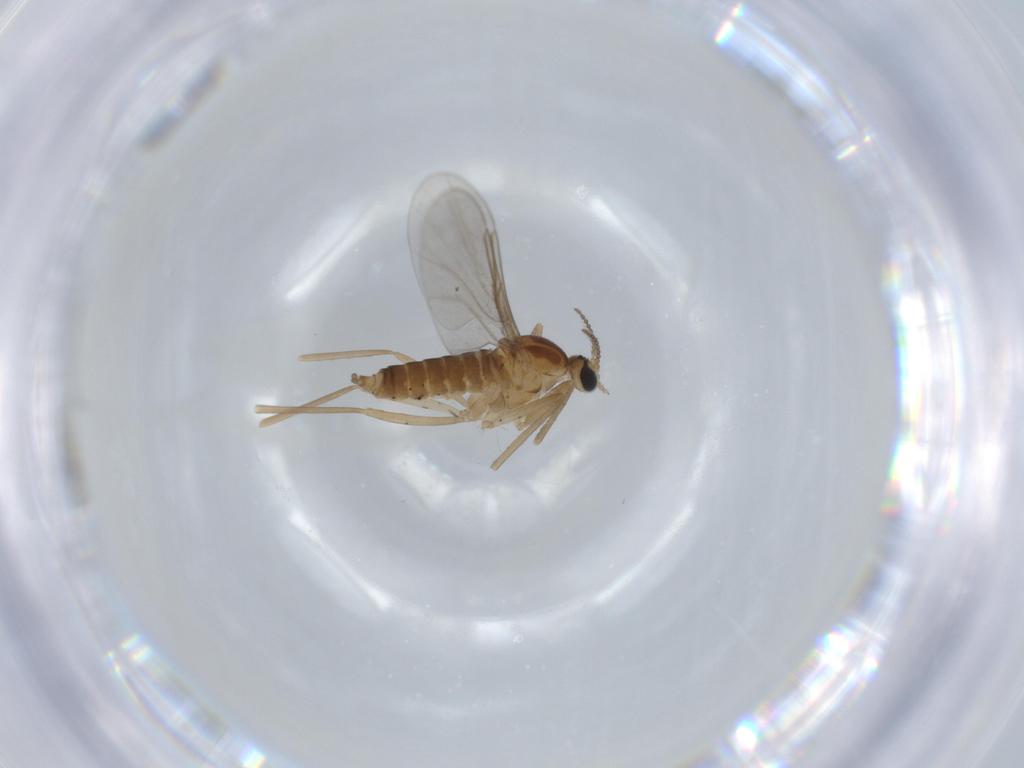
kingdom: Animalia
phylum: Arthropoda
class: Insecta
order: Diptera
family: Cecidomyiidae
